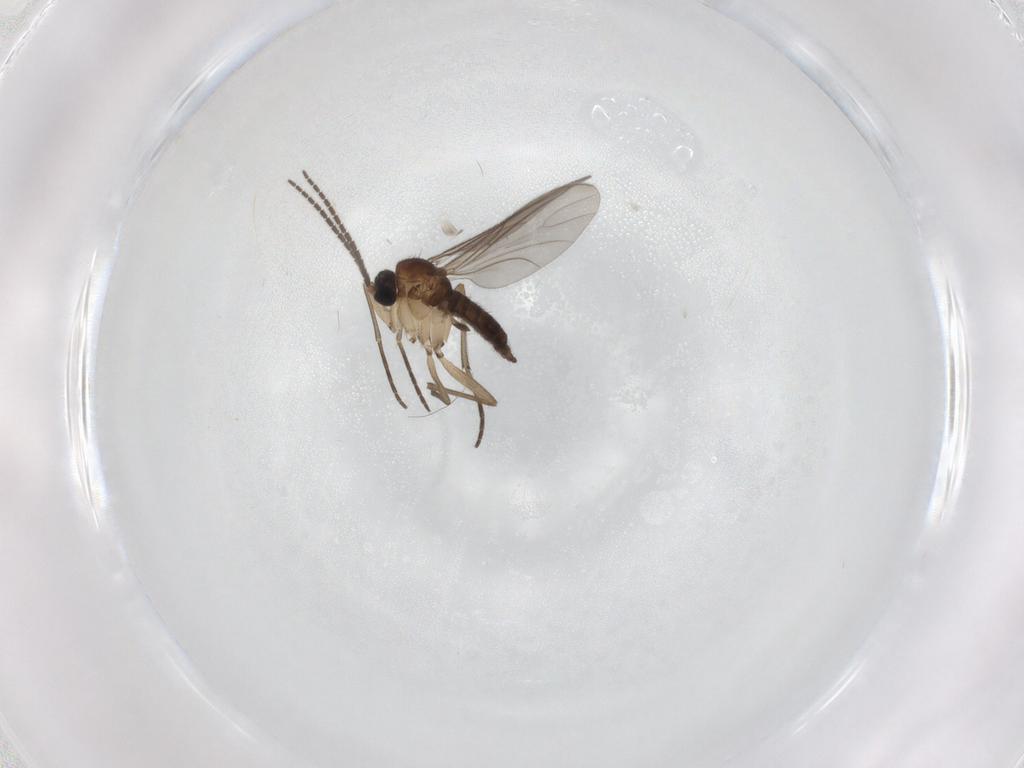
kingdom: Animalia
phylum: Arthropoda
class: Insecta
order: Diptera
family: Sciaridae
